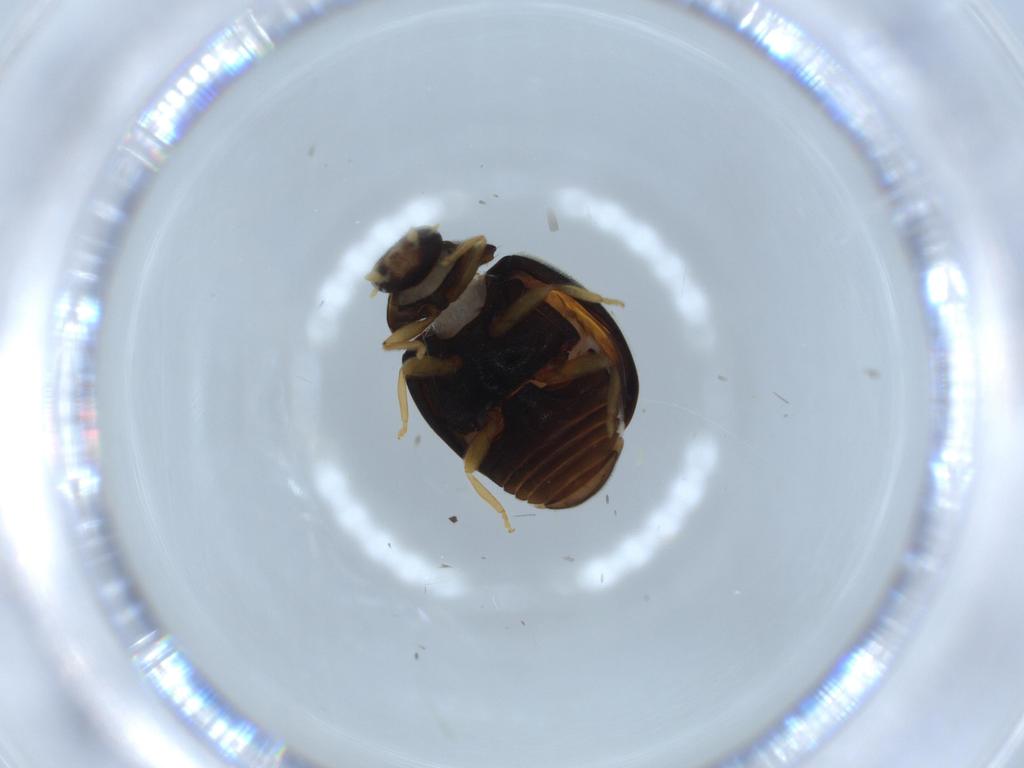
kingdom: Animalia
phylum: Arthropoda
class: Insecta
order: Coleoptera
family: Coccinellidae
